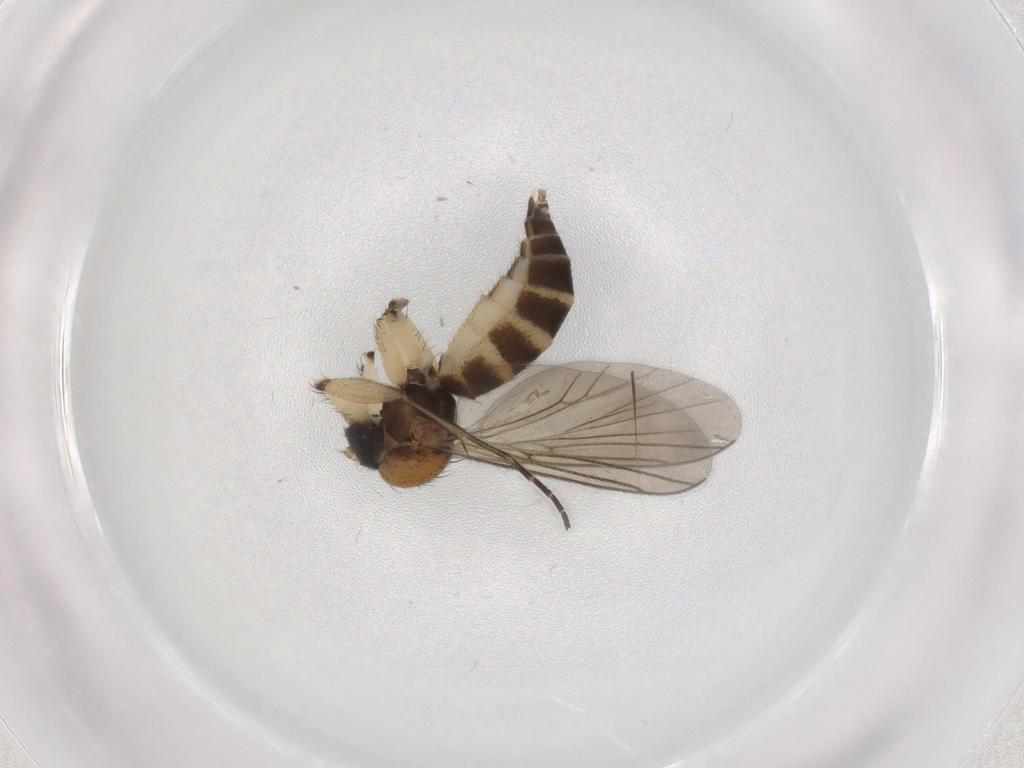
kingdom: Animalia
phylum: Arthropoda
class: Insecta
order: Diptera
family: Mycetophilidae
